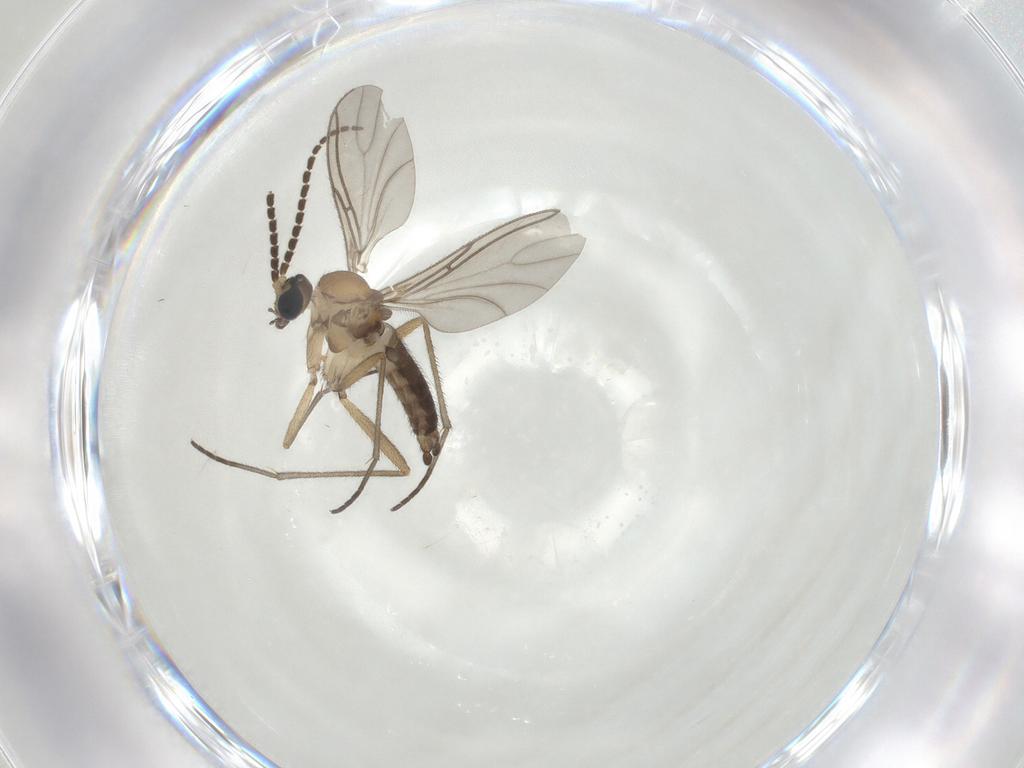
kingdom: Animalia
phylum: Arthropoda
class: Insecta
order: Diptera
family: Sciaridae
